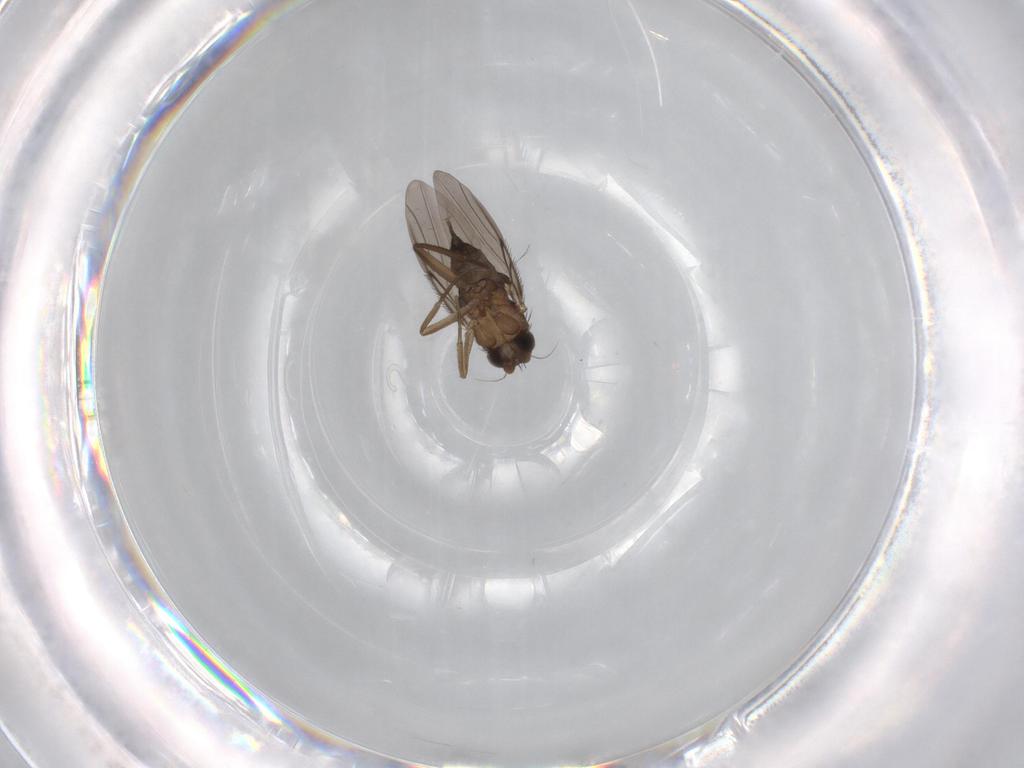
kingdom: Animalia
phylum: Arthropoda
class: Insecta
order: Diptera
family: Phoridae
